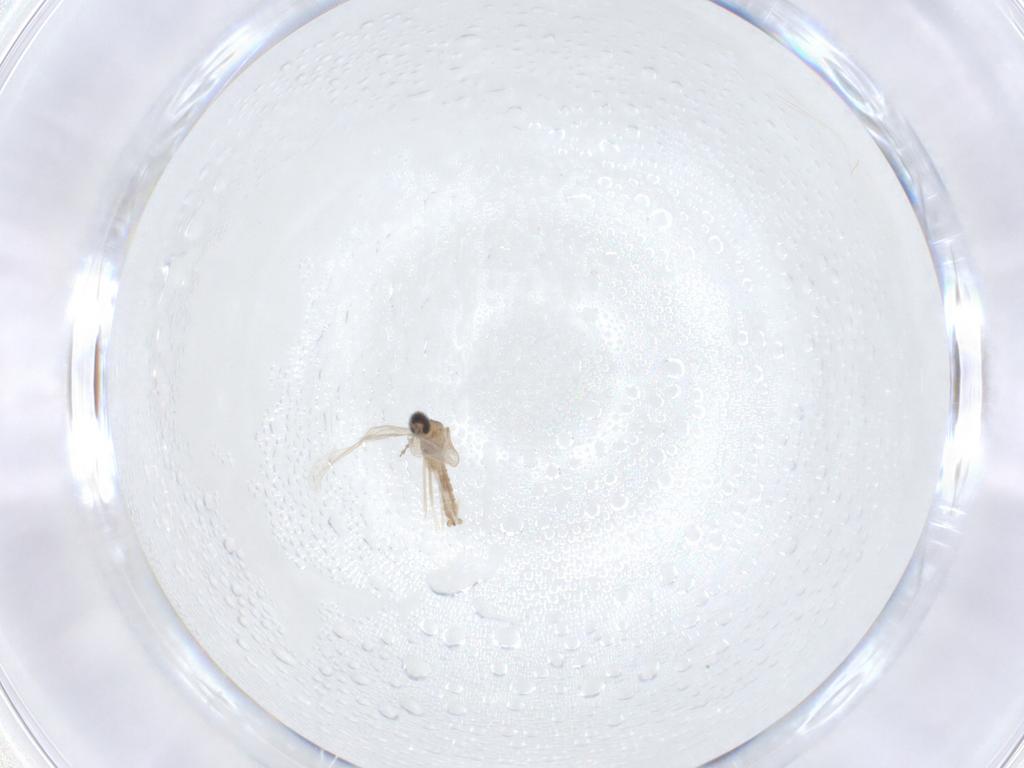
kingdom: Animalia
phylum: Arthropoda
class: Insecta
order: Diptera
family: Limoniidae
